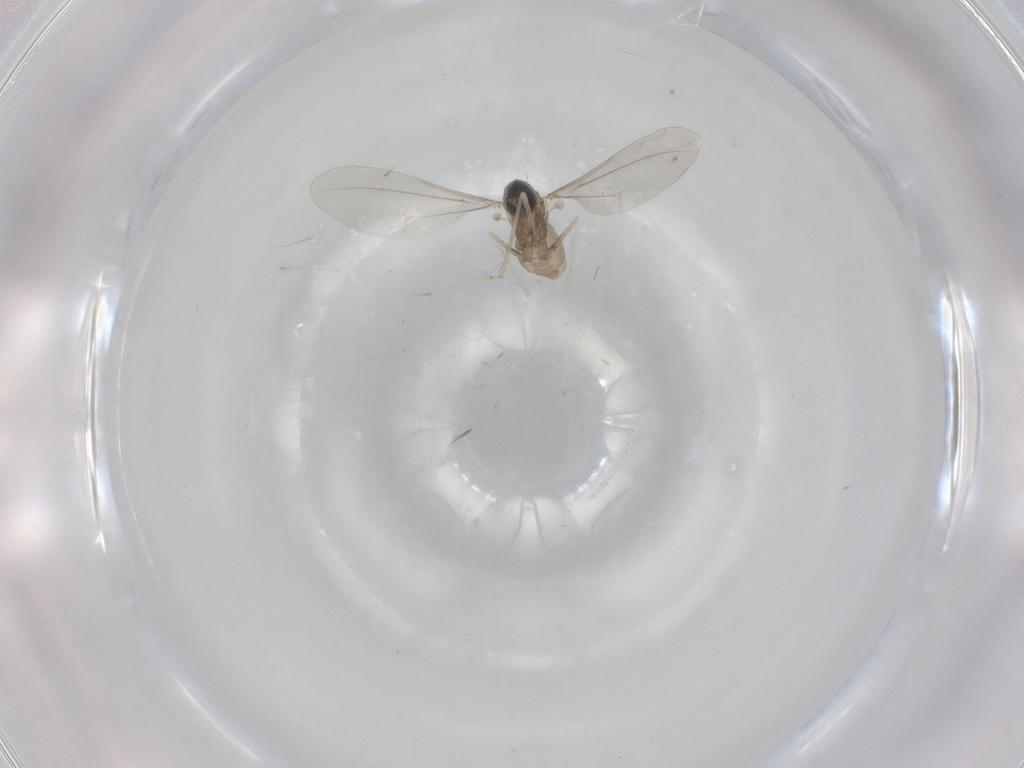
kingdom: Animalia
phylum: Arthropoda
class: Insecta
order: Diptera
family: Cecidomyiidae
